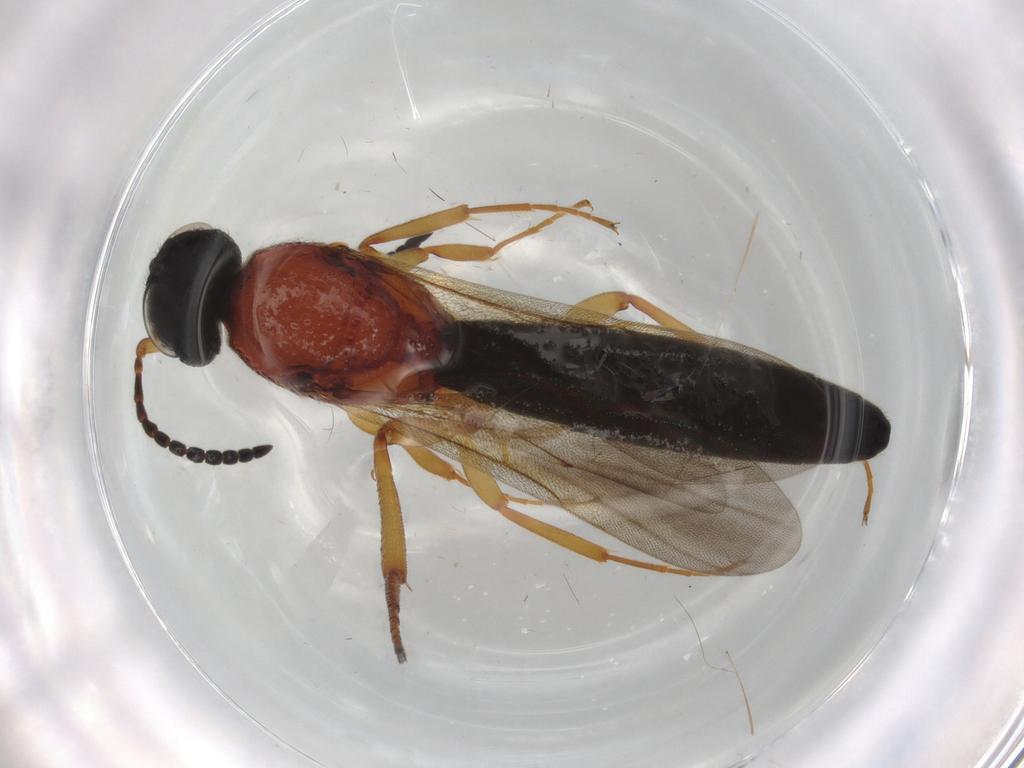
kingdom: Animalia
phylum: Arthropoda
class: Insecta
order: Hymenoptera
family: Scelionidae
